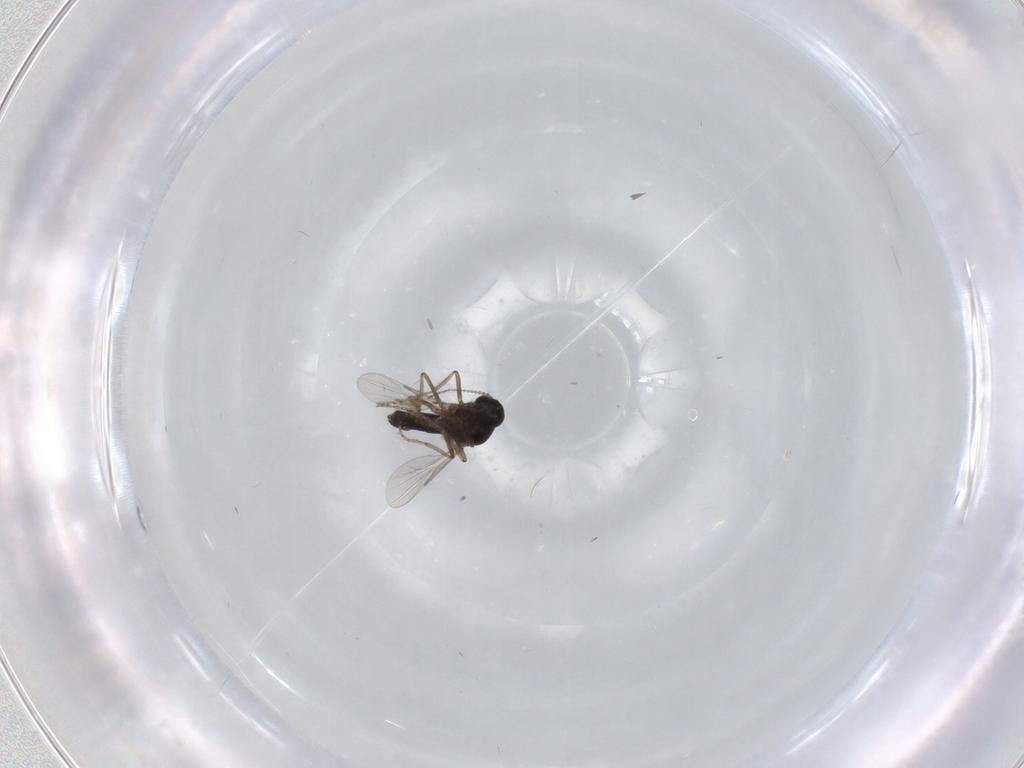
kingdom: Animalia
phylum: Arthropoda
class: Insecta
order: Diptera
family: Ceratopogonidae
